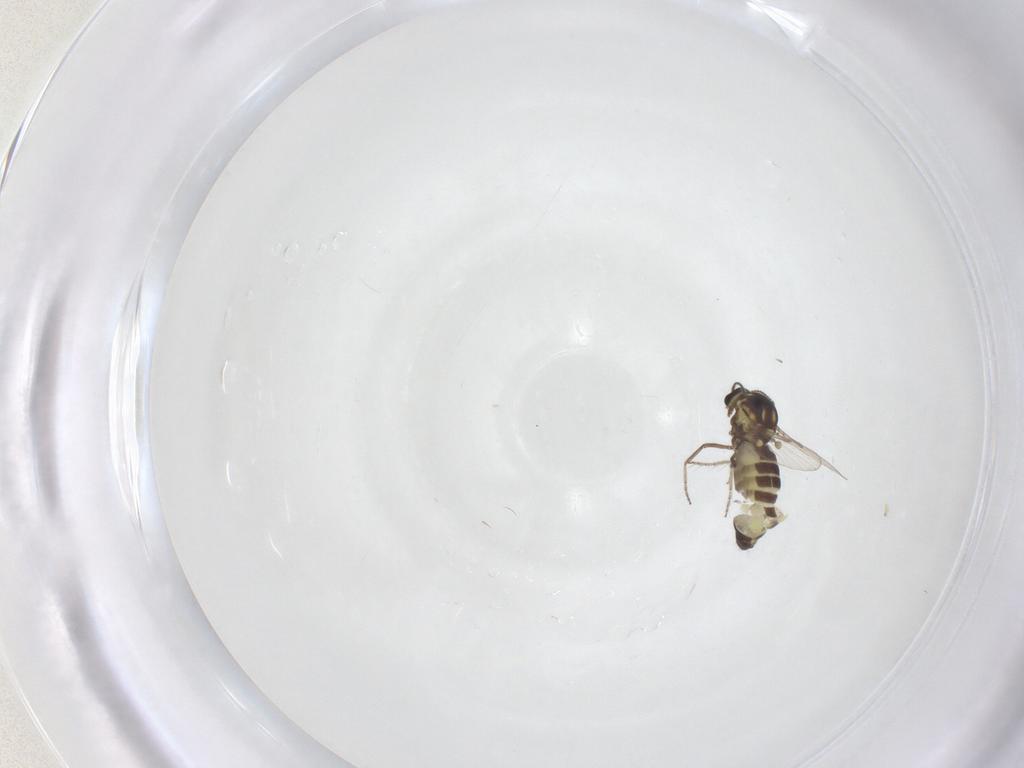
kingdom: Animalia
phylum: Arthropoda
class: Insecta
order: Diptera
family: Ceratopogonidae
